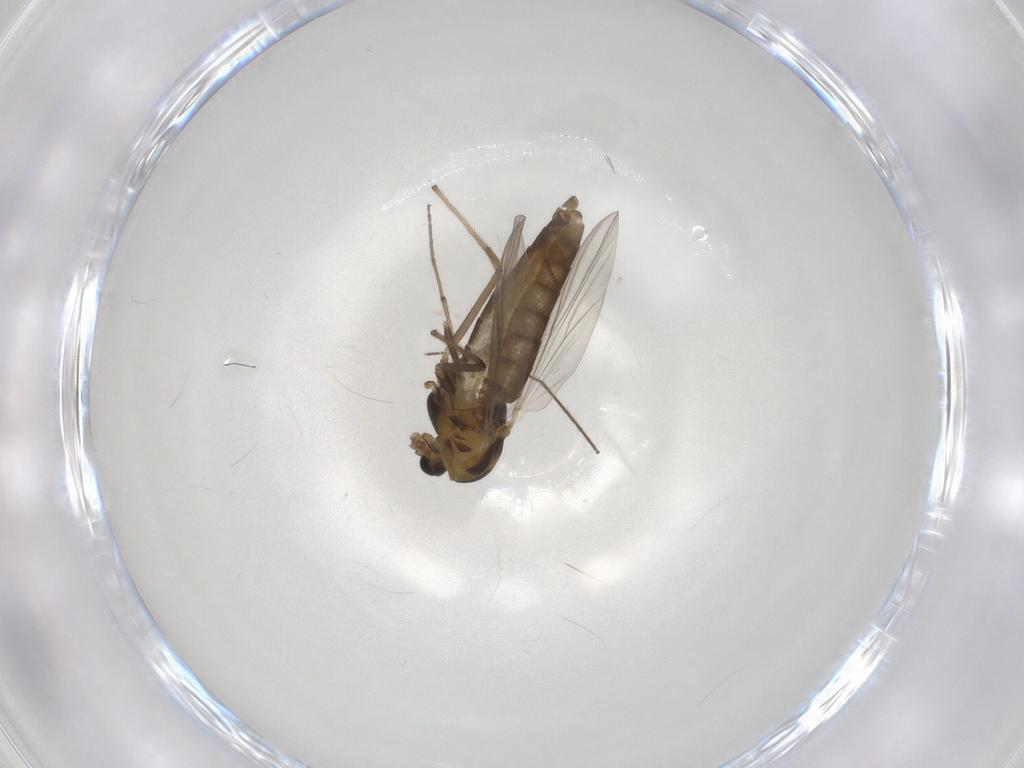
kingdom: Animalia
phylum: Arthropoda
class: Insecta
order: Diptera
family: Chironomidae
